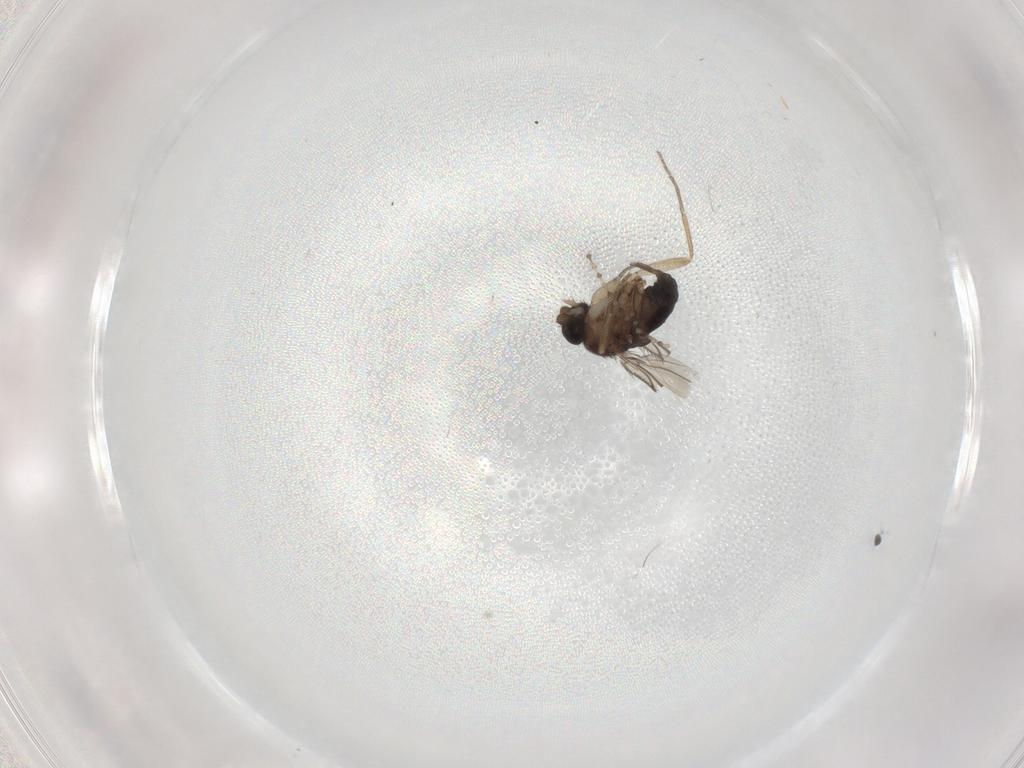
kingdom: Animalia
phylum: Arthropoda
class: Insecta
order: Diptera
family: Phoridae
